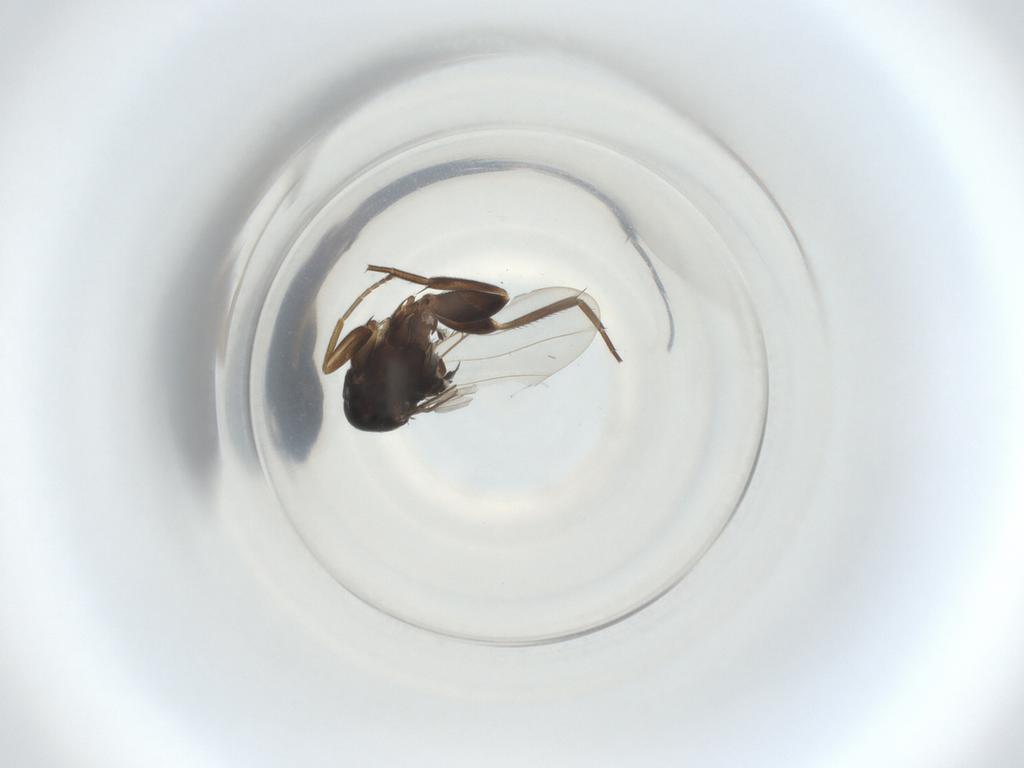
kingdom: Animalia
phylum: Arthropoda
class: Insecta
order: Diptera
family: Phoridae
